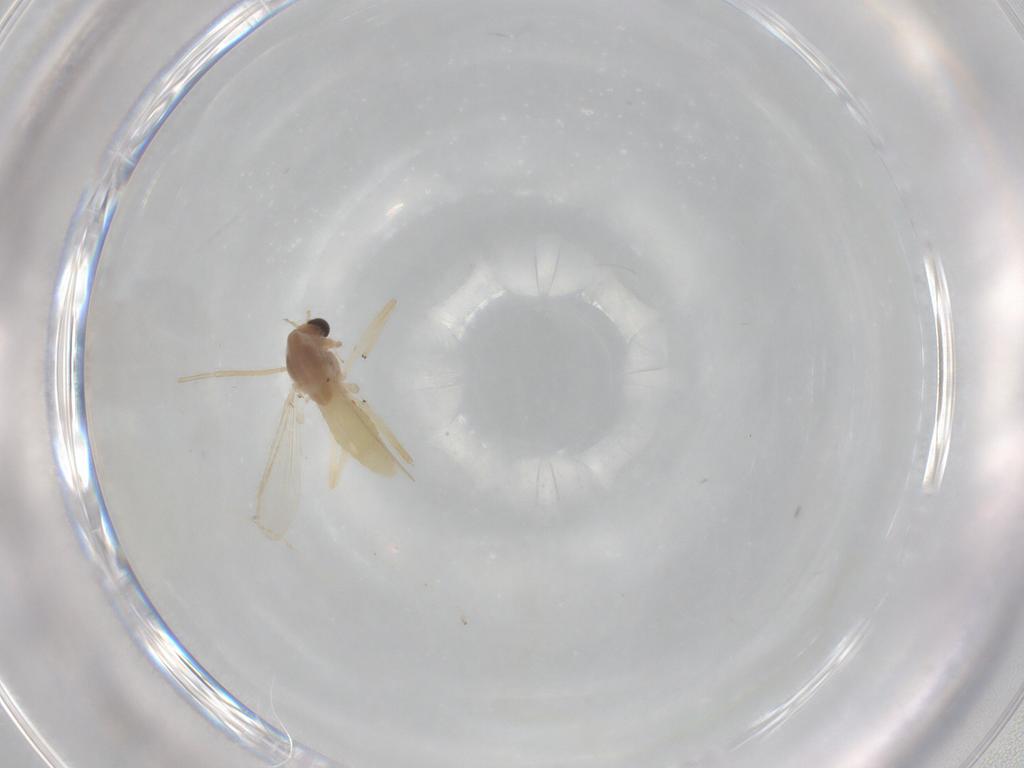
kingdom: Animalia
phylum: Arthropoda
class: Insecta
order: Diptera
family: Chironomidae
